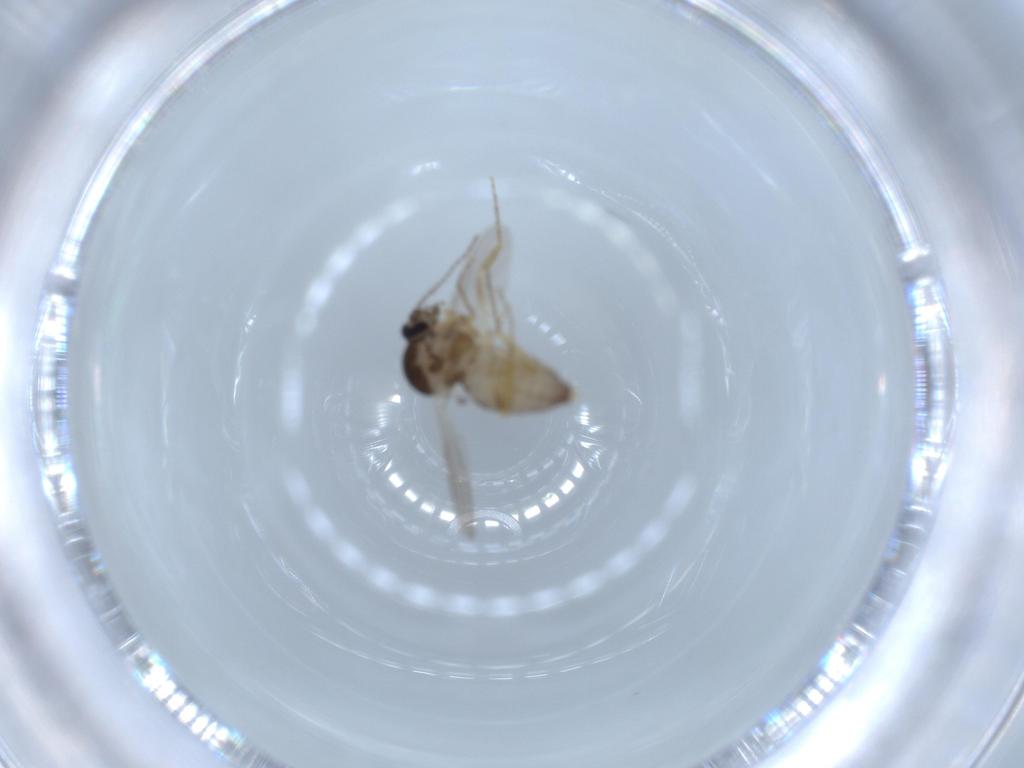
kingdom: Animalia
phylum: Arthropoda
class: Insecta
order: Diptera
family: Ceratopogonidae
